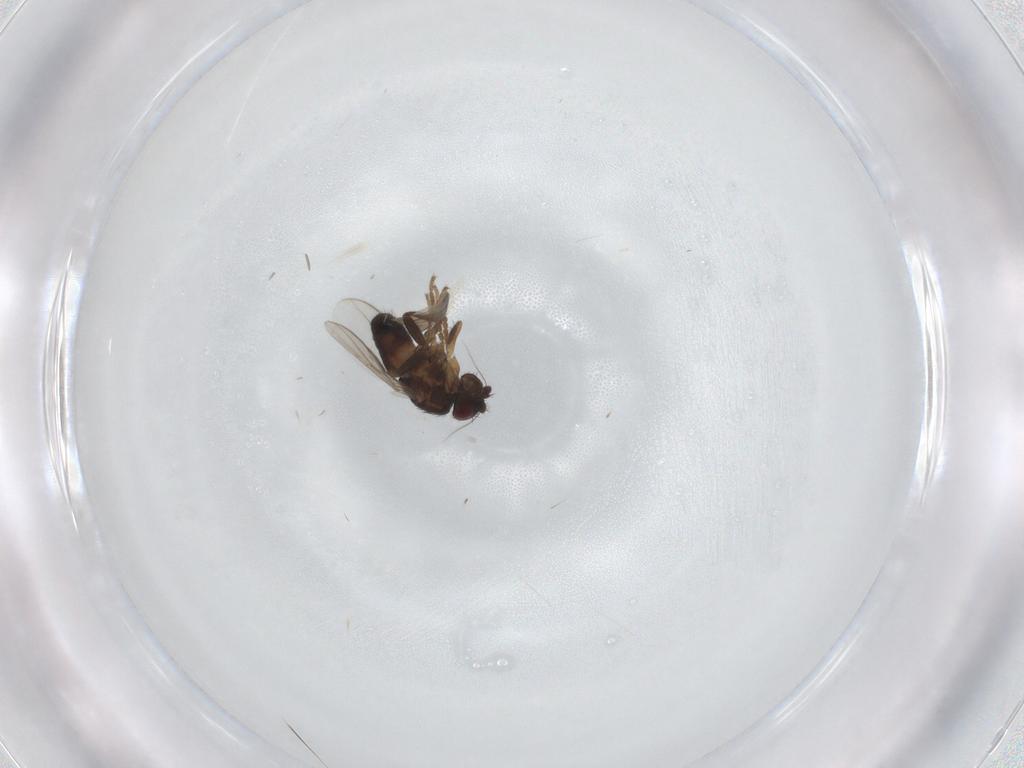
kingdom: Animalia
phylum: Arthropoda
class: Insecta
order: Diptera
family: Sphaeroceridae
